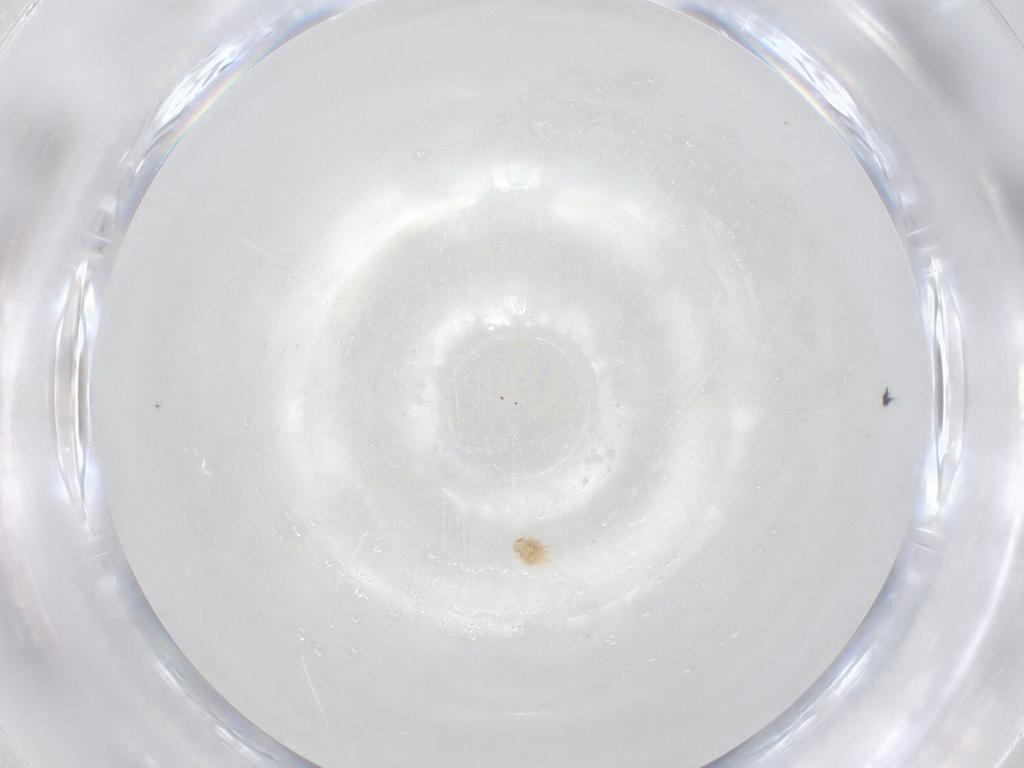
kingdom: Animalia
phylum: Arthropoda
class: Arachnida
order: Trombidiformes
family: Tetranychidae
